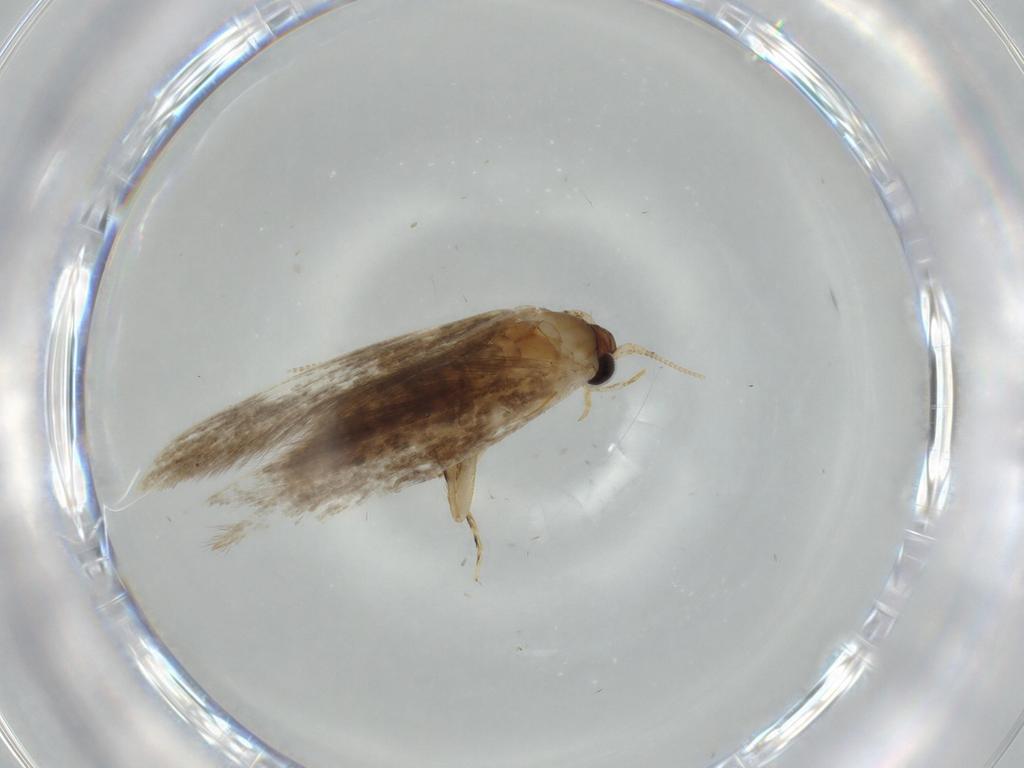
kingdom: Animalia
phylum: Arthropoda
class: Insecta
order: Lepidoptera
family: Tineidae
